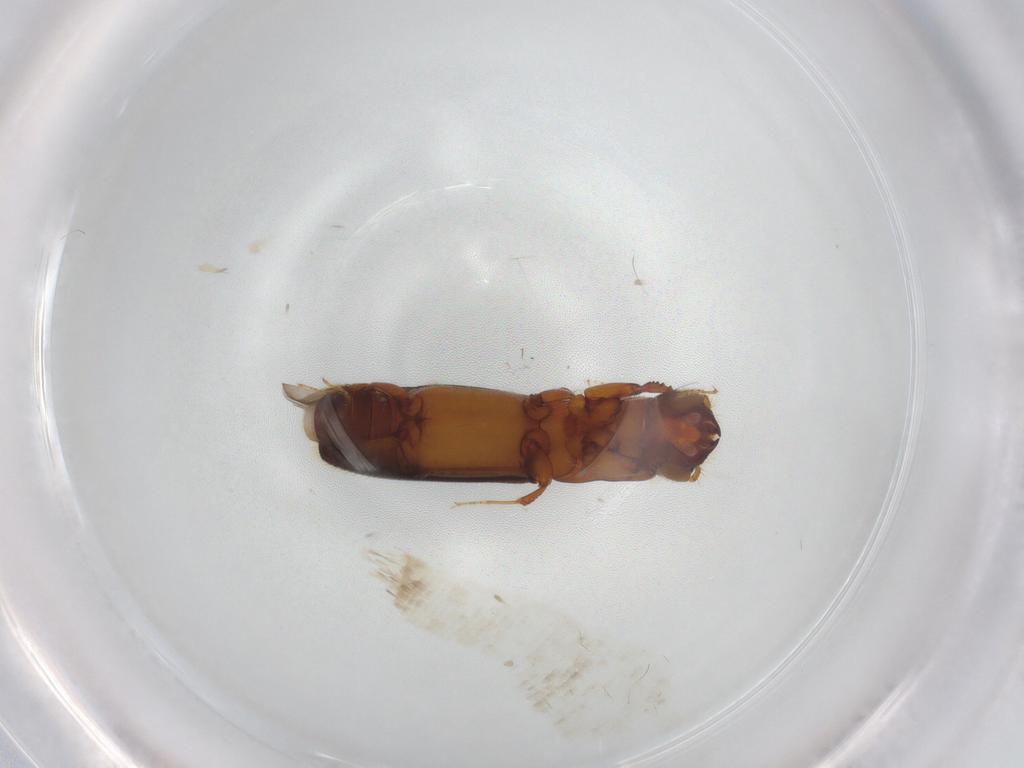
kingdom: Animalia
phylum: Arthropoda
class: Insecta
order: Coleoptera
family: Curculionidae
